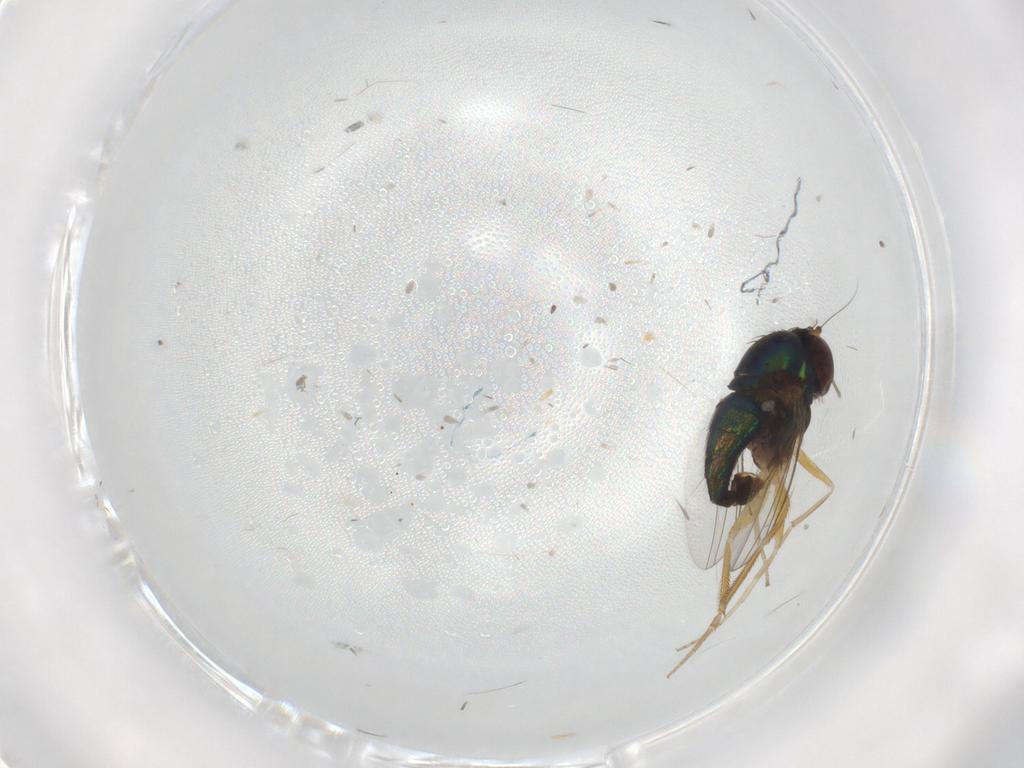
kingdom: Animalia
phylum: Arthropoda
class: Insecta
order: Diptera
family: Dolichopodidae
